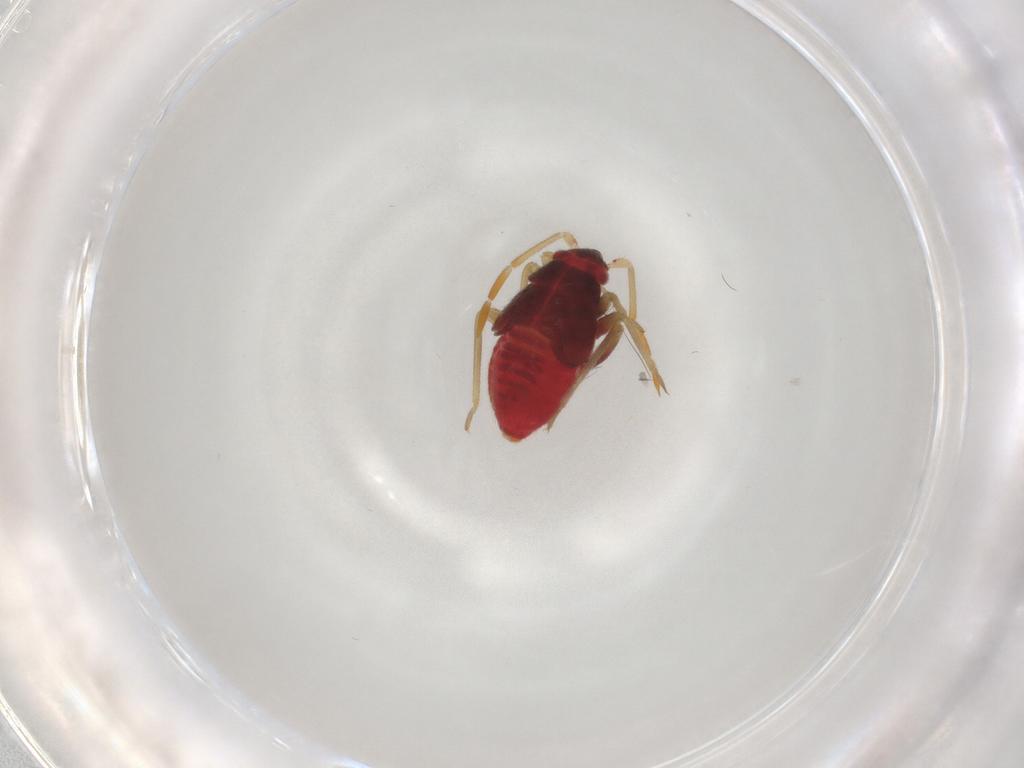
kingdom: Animalia
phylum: Arthropoda
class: Insecta
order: Hemiptera
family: Miridae
